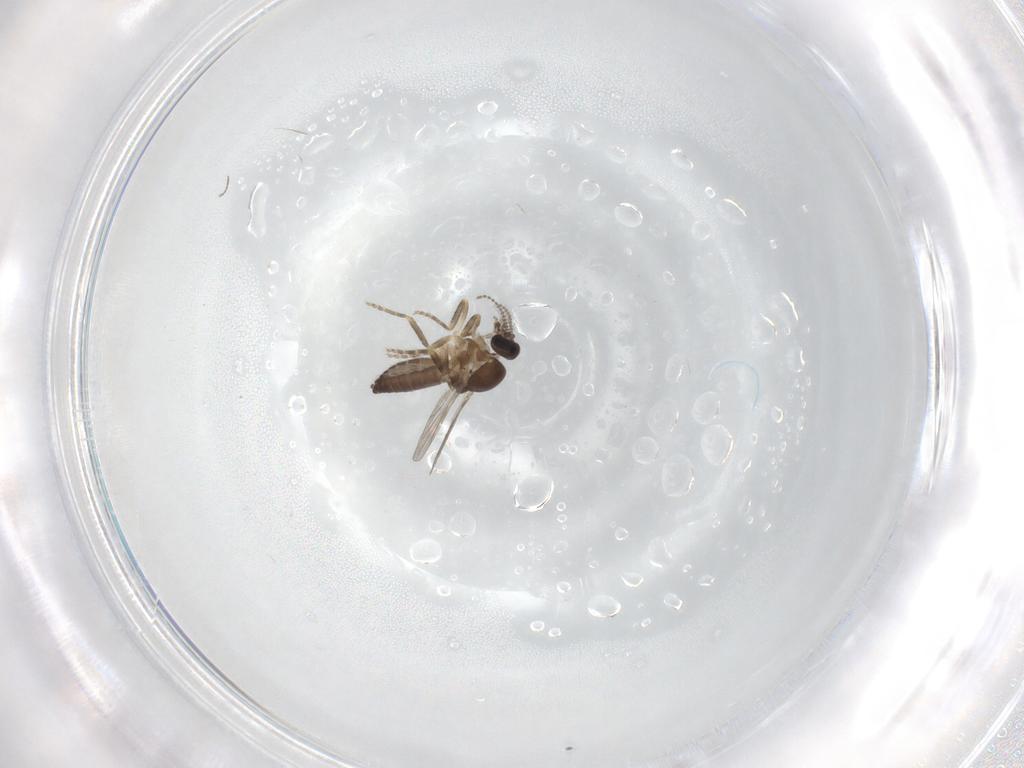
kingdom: Animalia
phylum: Arthropoda
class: Insecta
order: Diptera
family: Ceratopogonidae
